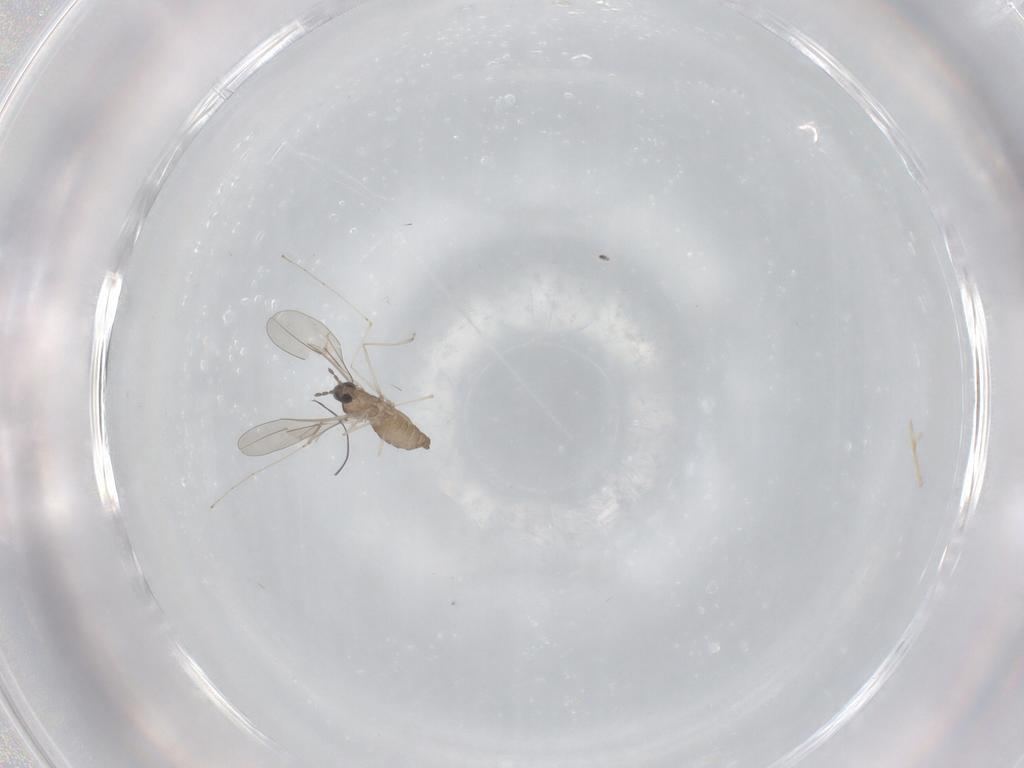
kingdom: Animalia
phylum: Arthropoda
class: Insecta
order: Diptera
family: Cecidomyiidae
